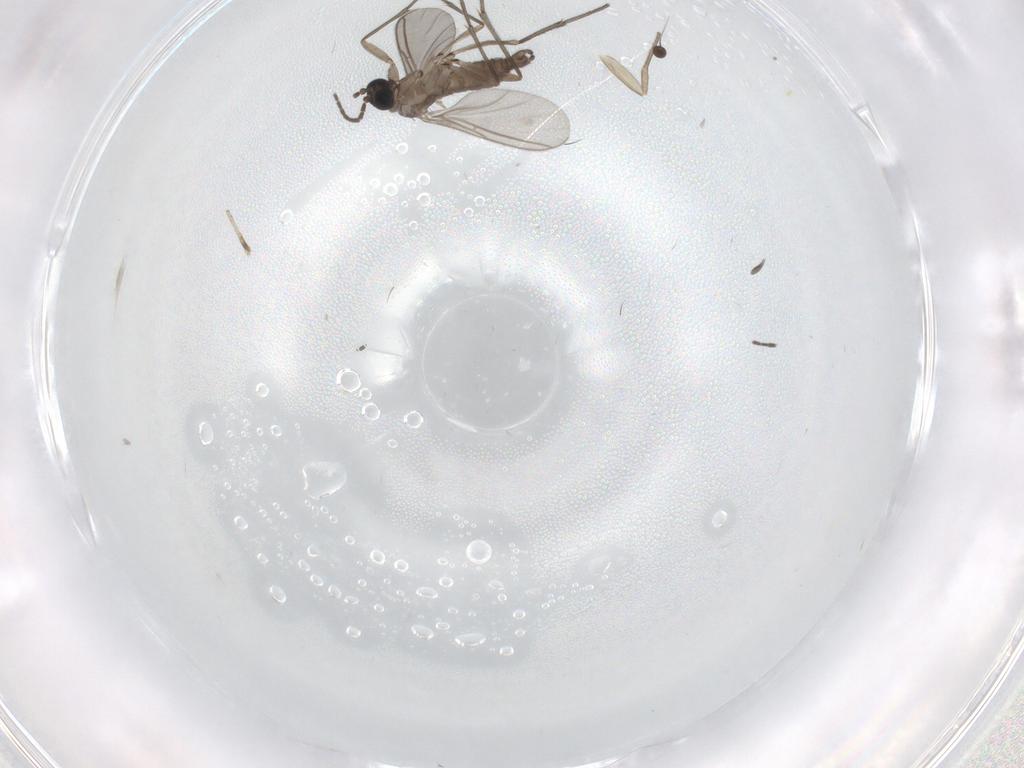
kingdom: Animalia
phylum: Arthropoda
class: Insecta
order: Diptera
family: Sciaridae
